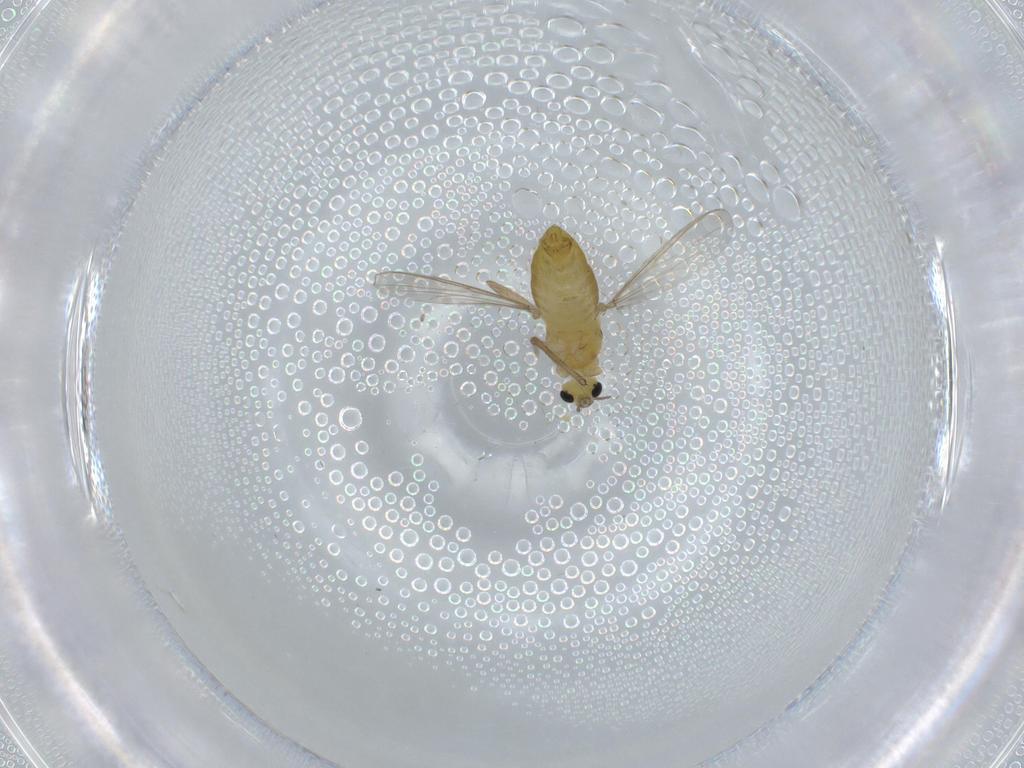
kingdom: Animalia
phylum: Arthropoda
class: Insecta
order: Diptera
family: Chironomidae
